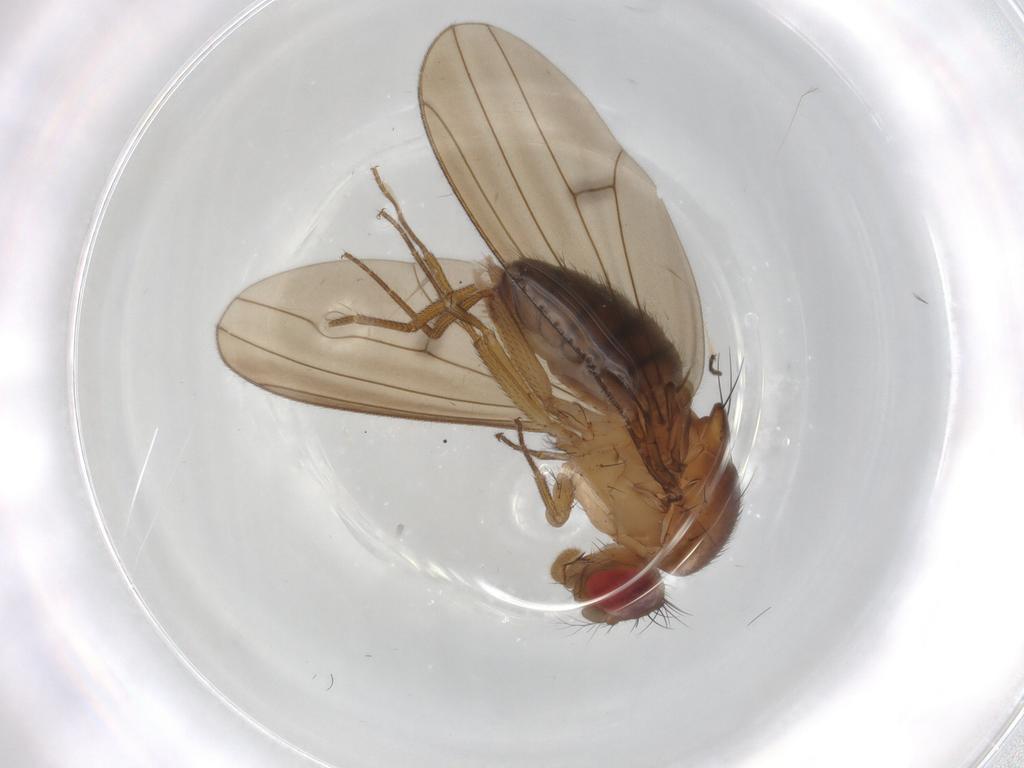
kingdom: Animalia
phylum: Arthropoda
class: Insecta
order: Diptera
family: Drosophilidae
